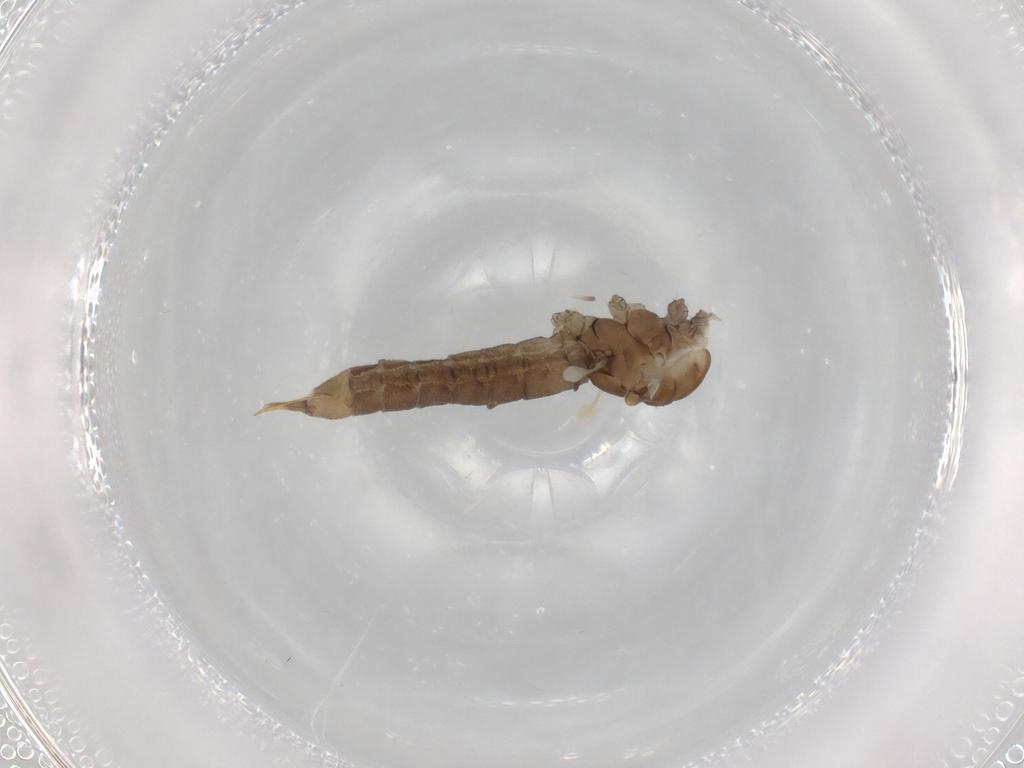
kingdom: Animalia
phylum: Arthropoda
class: Insecta
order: Diptera
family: Limoniidae
